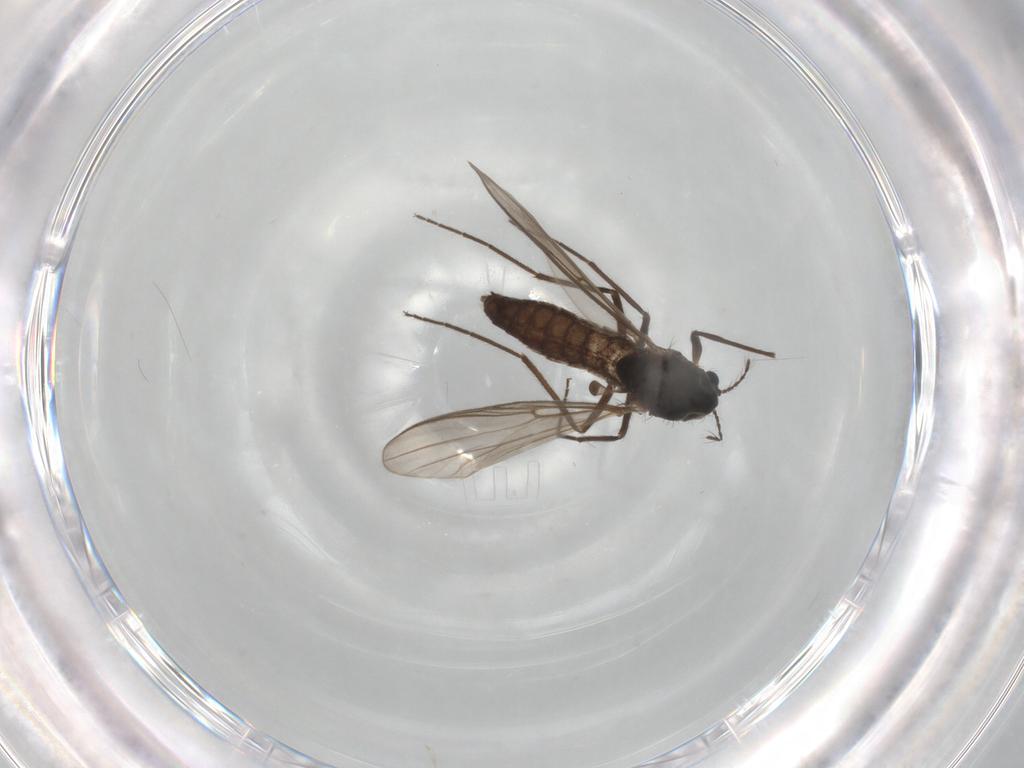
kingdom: Animalia
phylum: Arthropoda
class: Insecta
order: Diptera
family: Chironomidae
